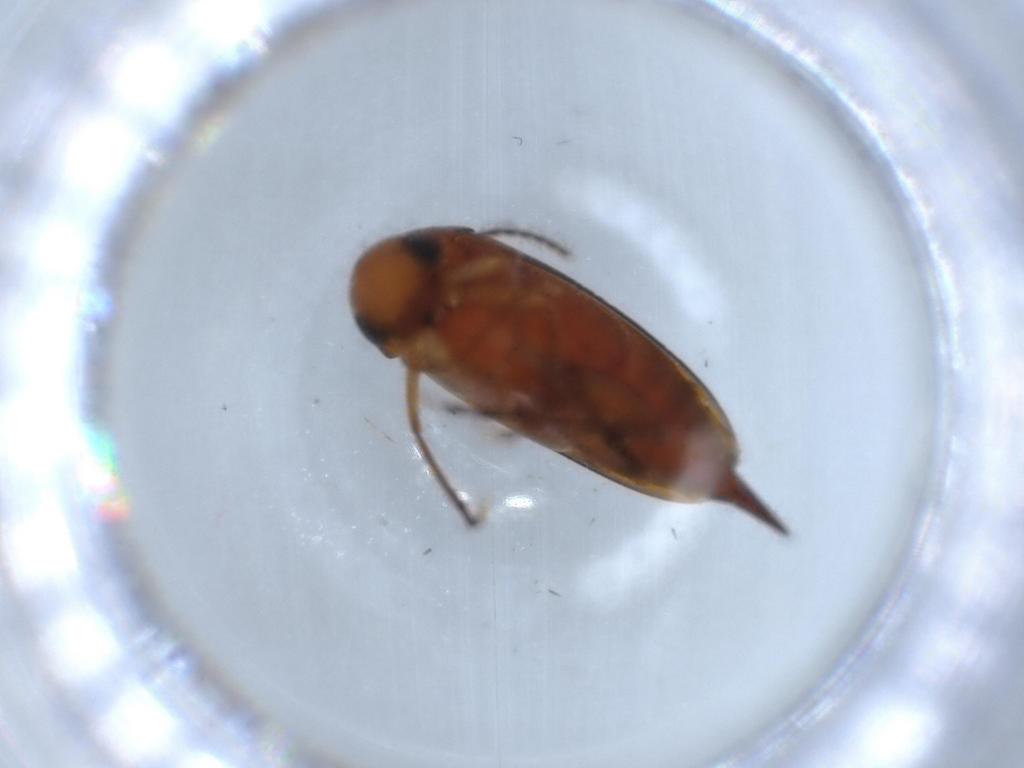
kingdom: Animalia
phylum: Arthropoda
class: Insecta
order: Coleoptera
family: Mordellidae
